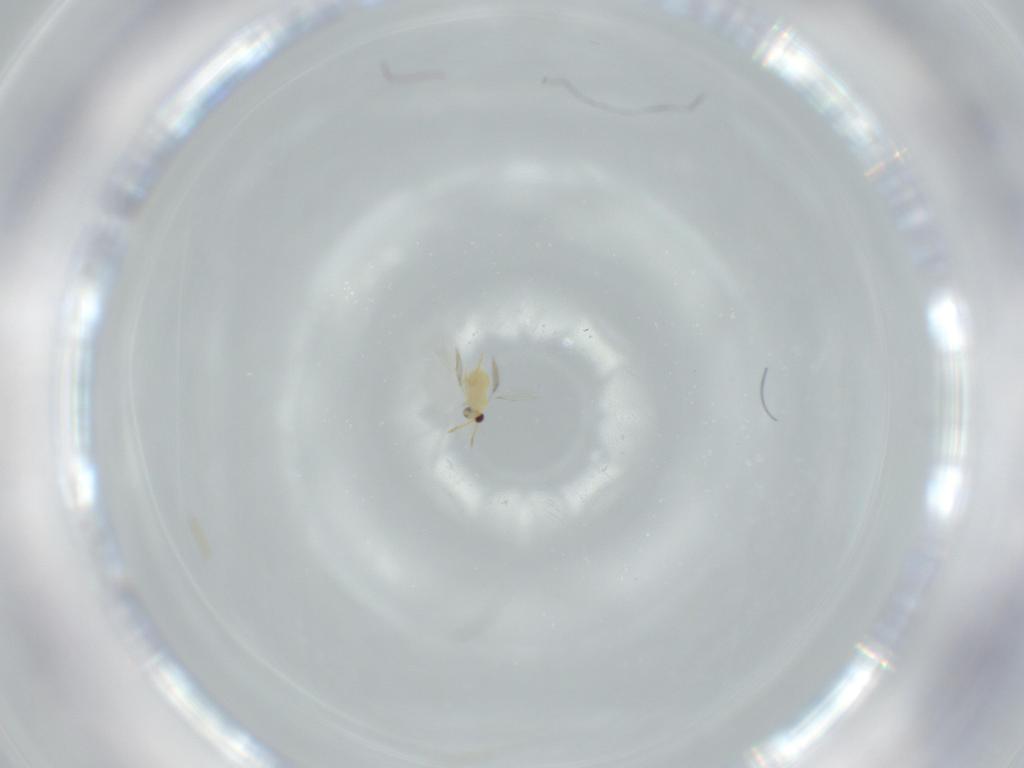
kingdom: Animalia
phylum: Arthropoda
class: Insecta
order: Hymenoptera
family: Aphelinidae
